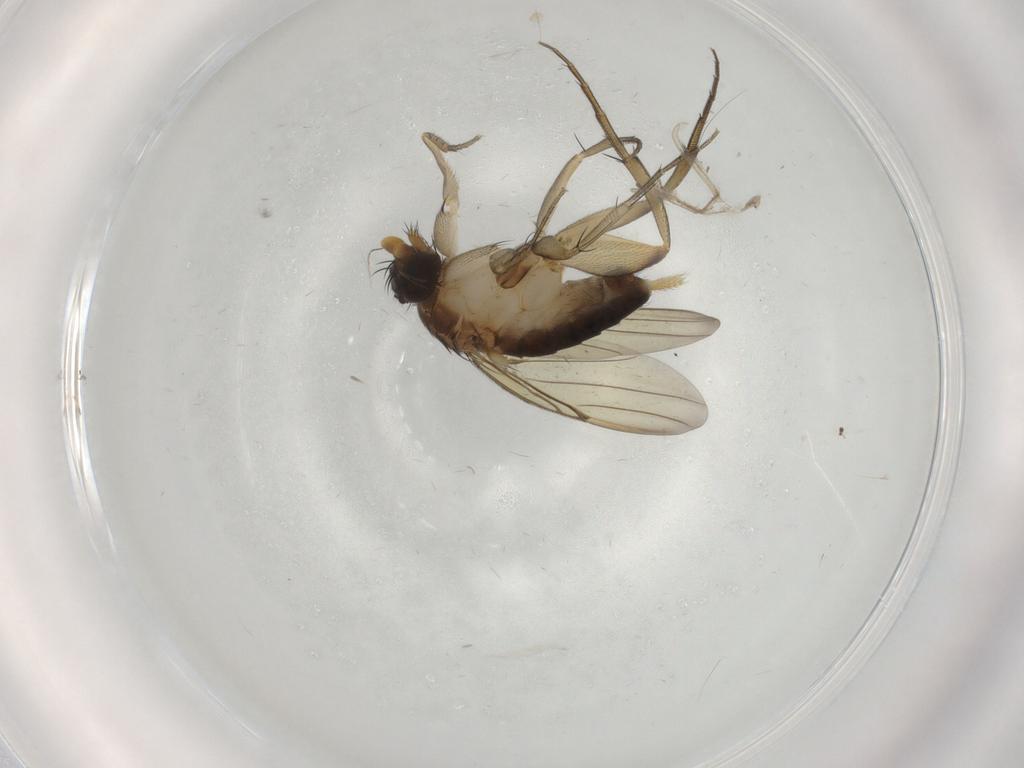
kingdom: Animalia
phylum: Arthropoda
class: Insecta
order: Diptera
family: Phoridae
